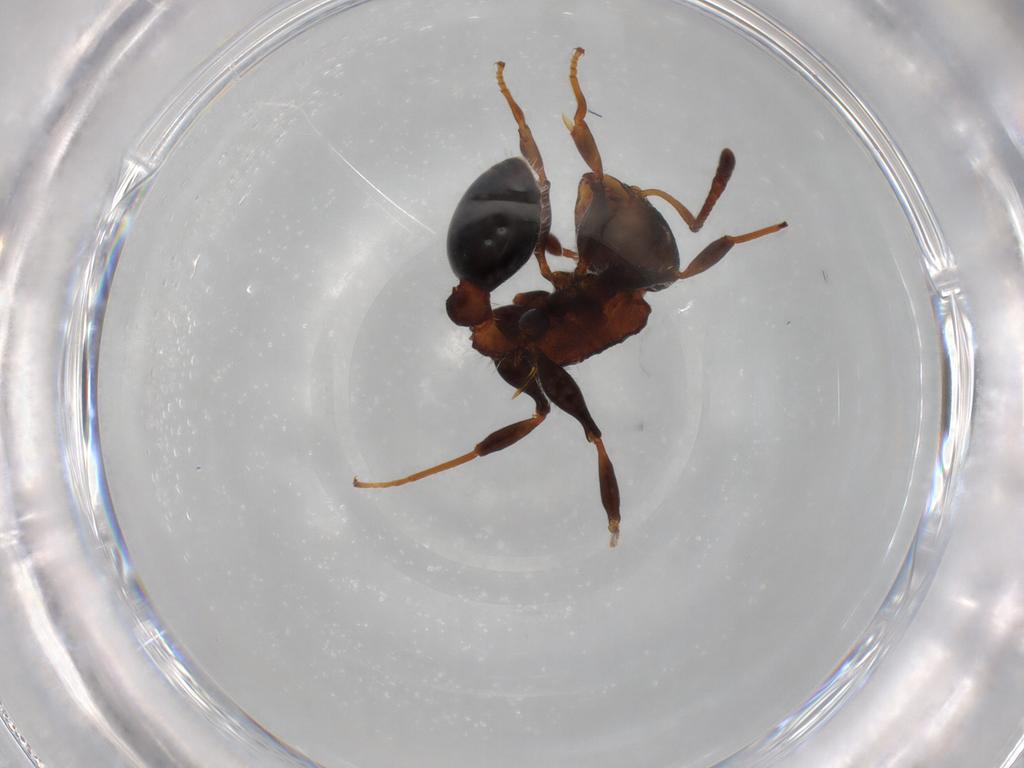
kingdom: Animalia
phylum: Arthropoda
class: Insecta
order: Hymenoptera
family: Formicidae
